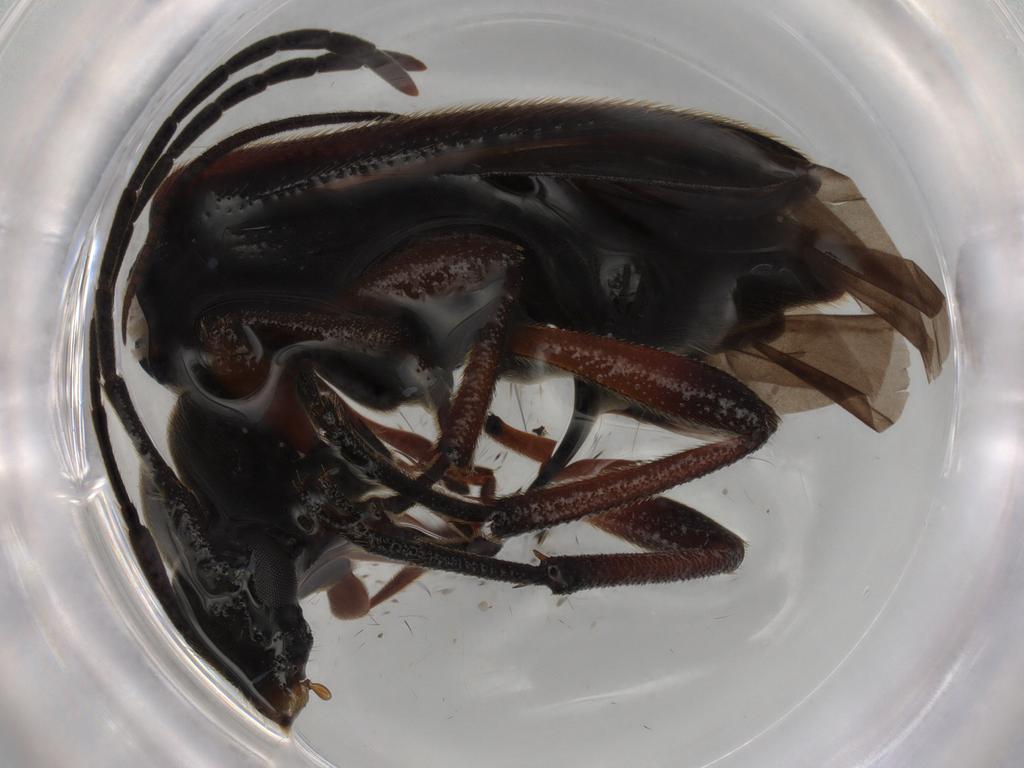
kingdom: Animalia
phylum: Arthropoda
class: Insecta
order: Coleoptera
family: Cerambycidae
